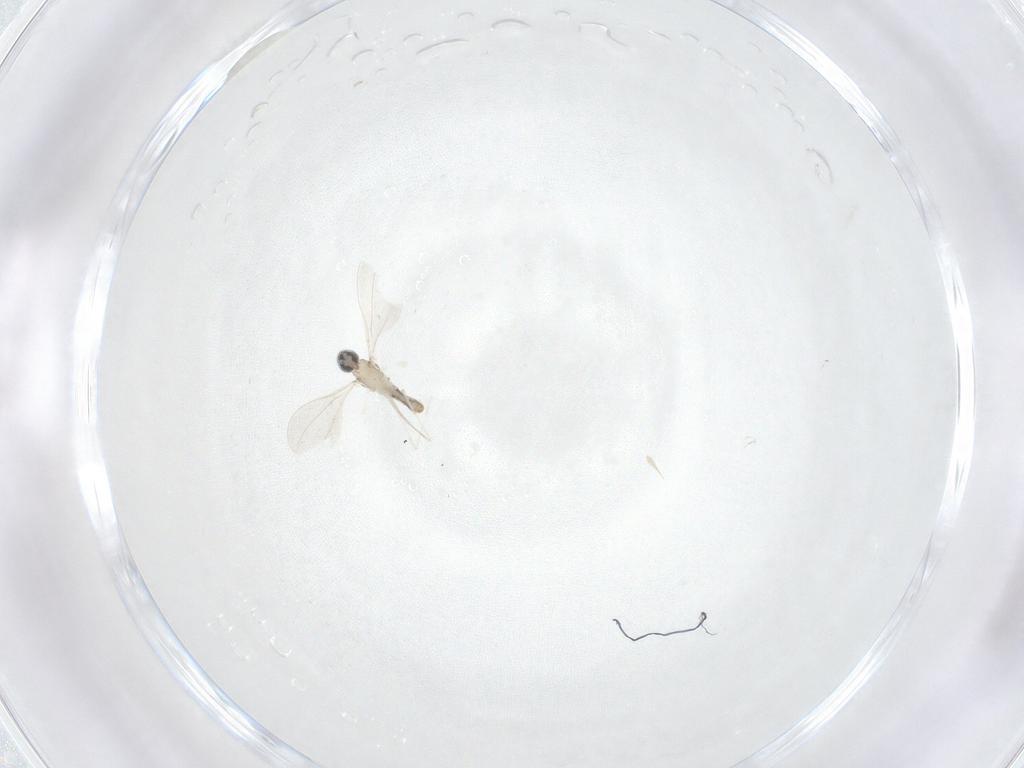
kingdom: Animalia
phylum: Arthropoda
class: Insecta
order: Diptera
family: Cecidomyiidae
